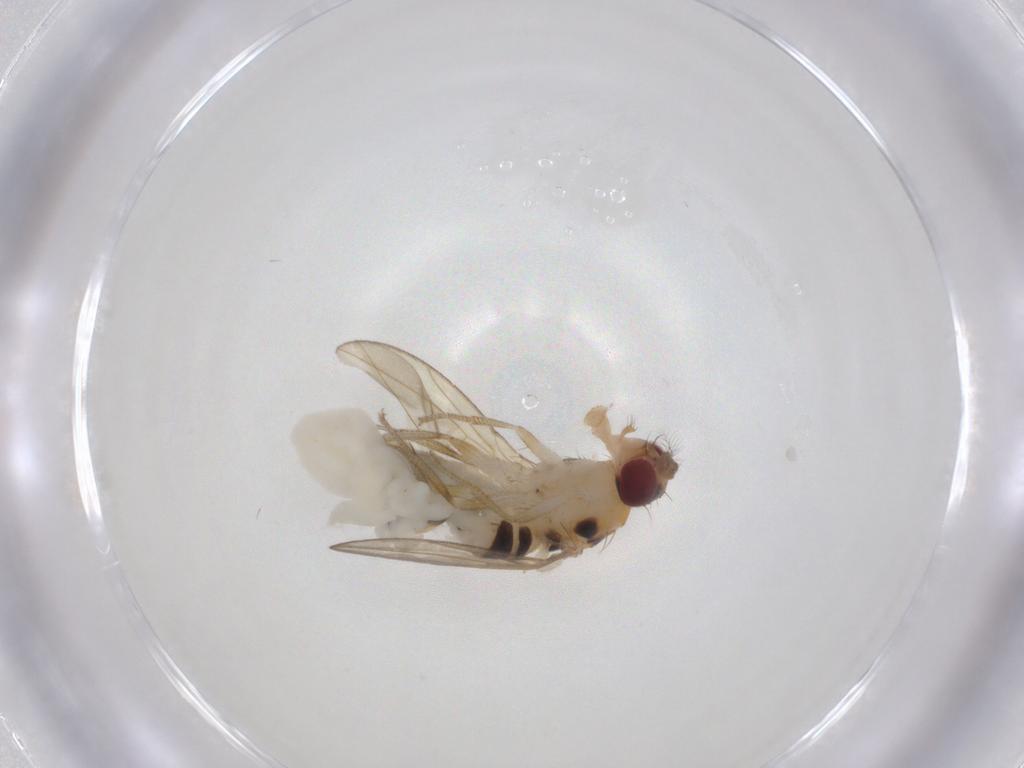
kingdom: Animalia
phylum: Arthropoda
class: Insecta
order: Diptera
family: Drosophilidae
